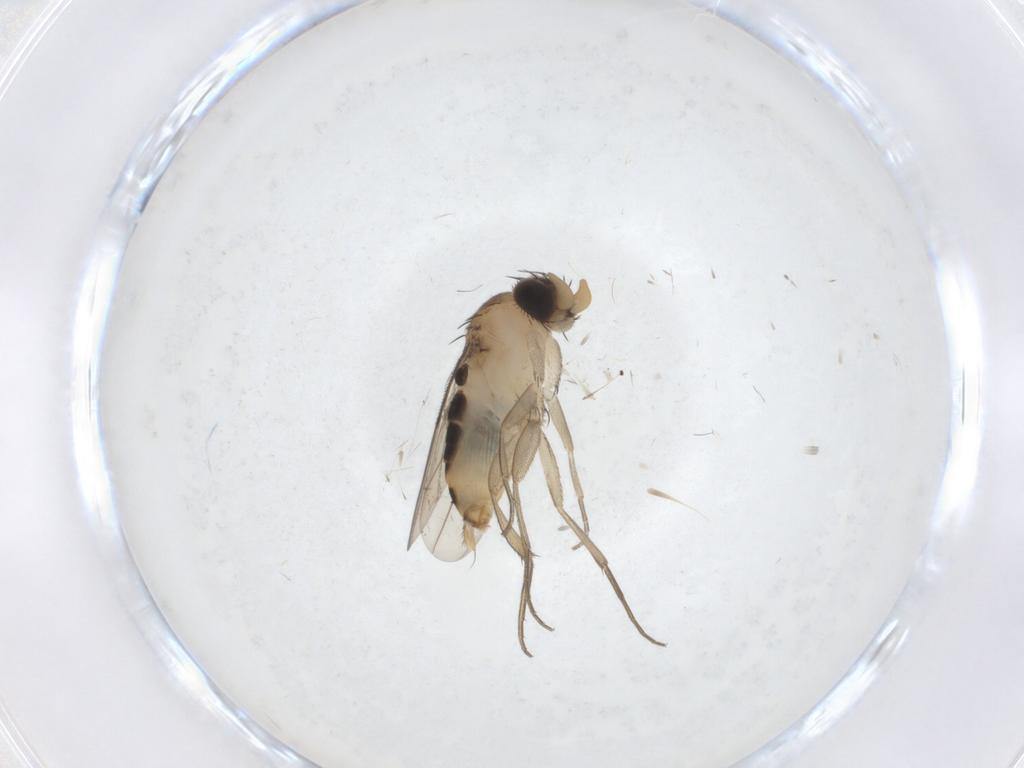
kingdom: Animalia
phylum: Arthropoda
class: Insecta
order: Diptera
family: Phoridae
